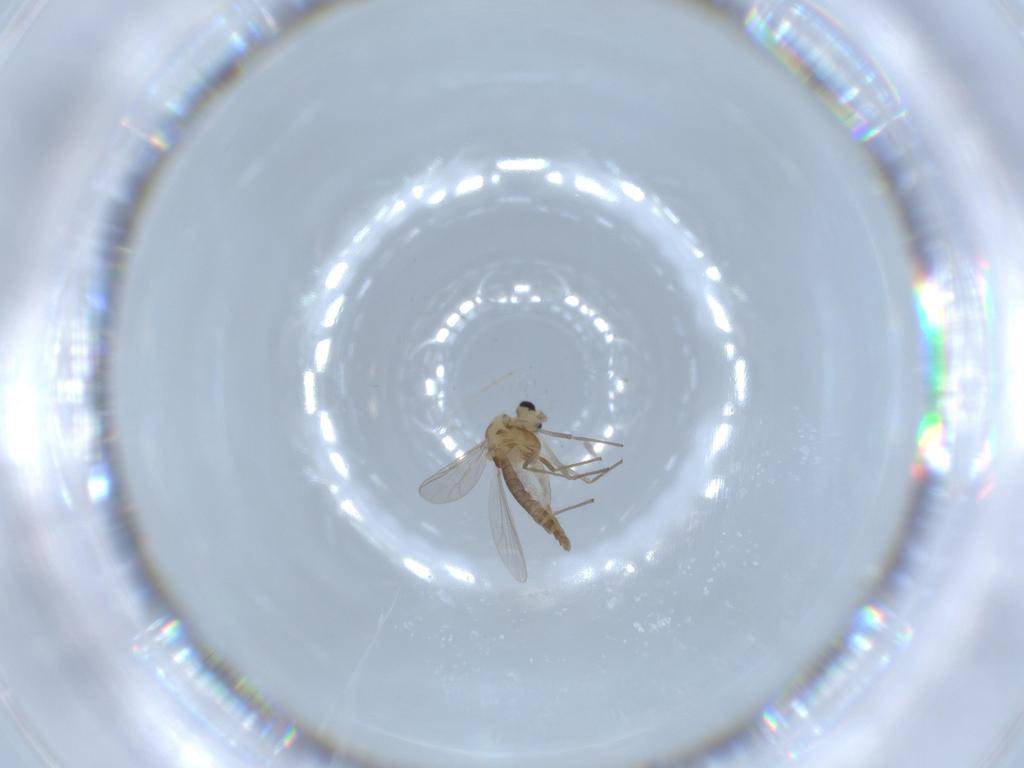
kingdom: Animalia
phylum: Arthropoda
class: Insecta
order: Diptera
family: Chironomidae
